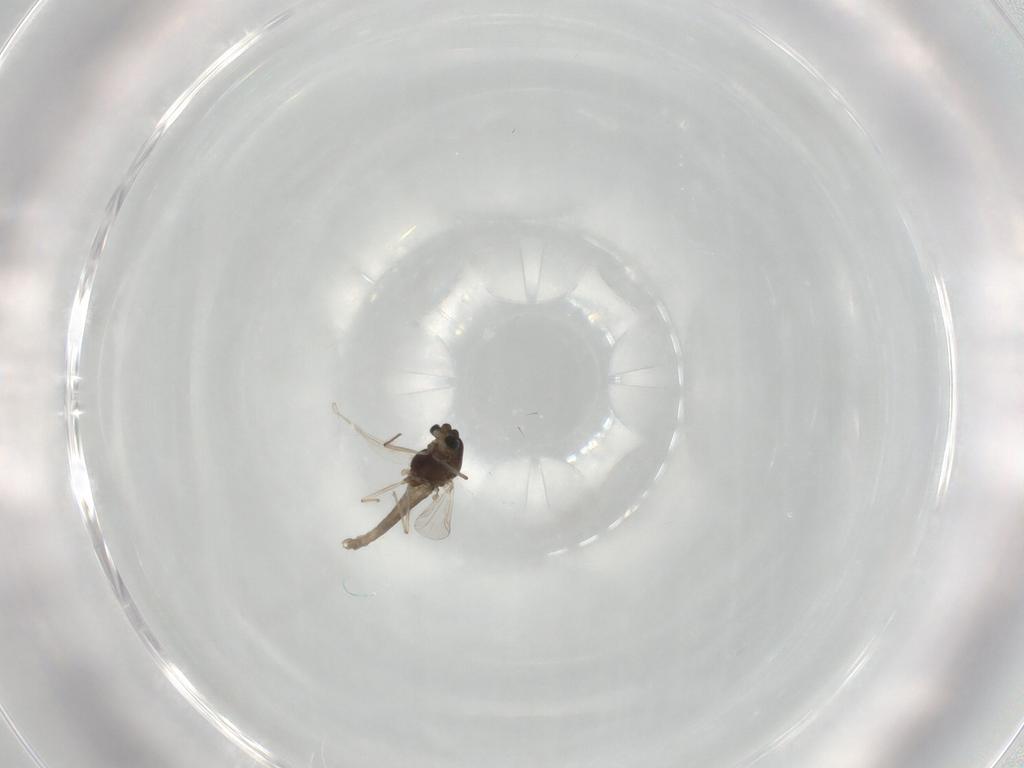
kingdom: Animalia
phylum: Arthropoda
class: Insecta
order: Diptera
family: Chironomidae
